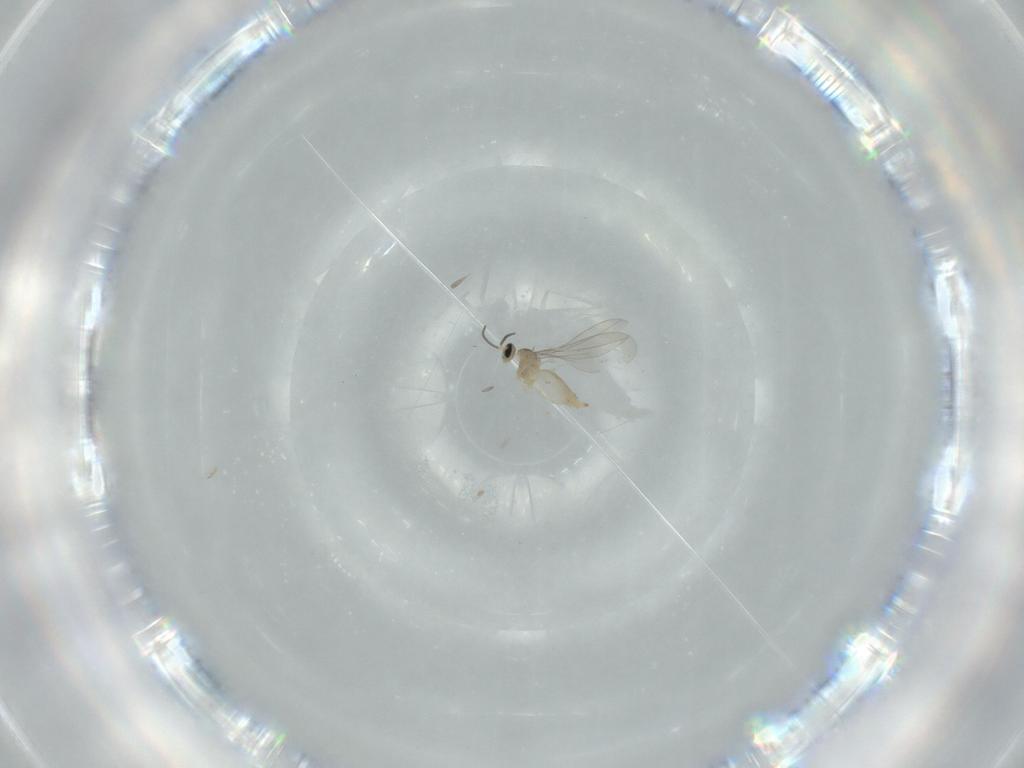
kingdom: Animalia
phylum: Arthropoda
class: Insecta
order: Diptera
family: Cecidomyiidae
